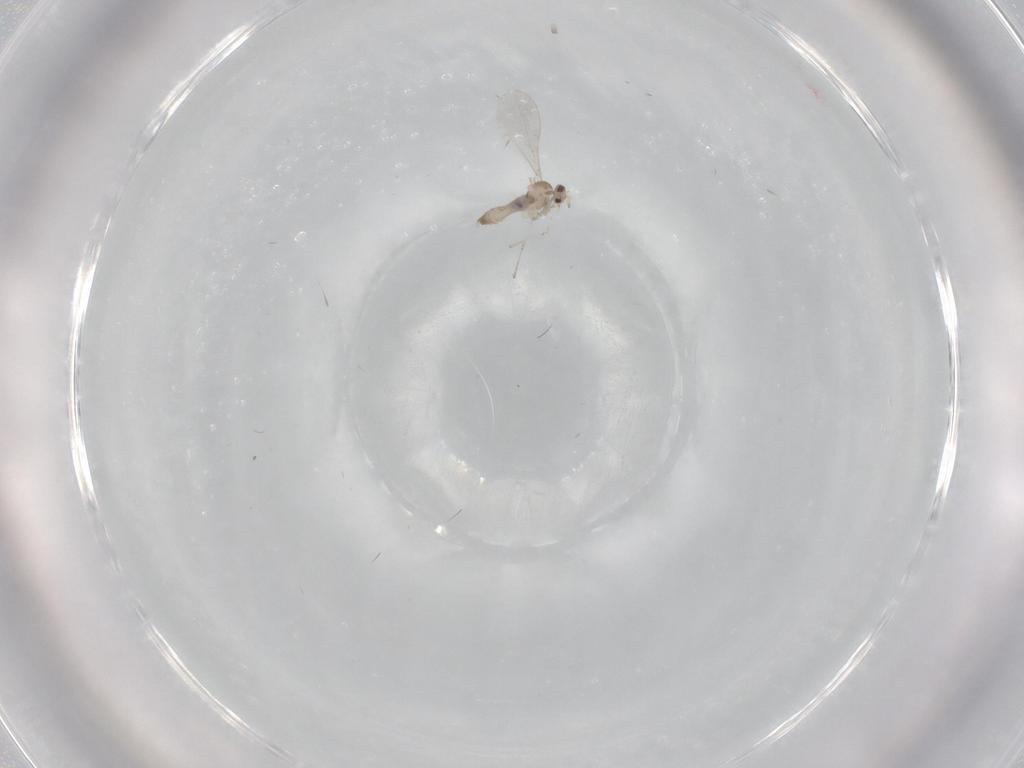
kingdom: Animalia
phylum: Arthropoda
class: Insecta
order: Diptera
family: Cecidomyiidae
